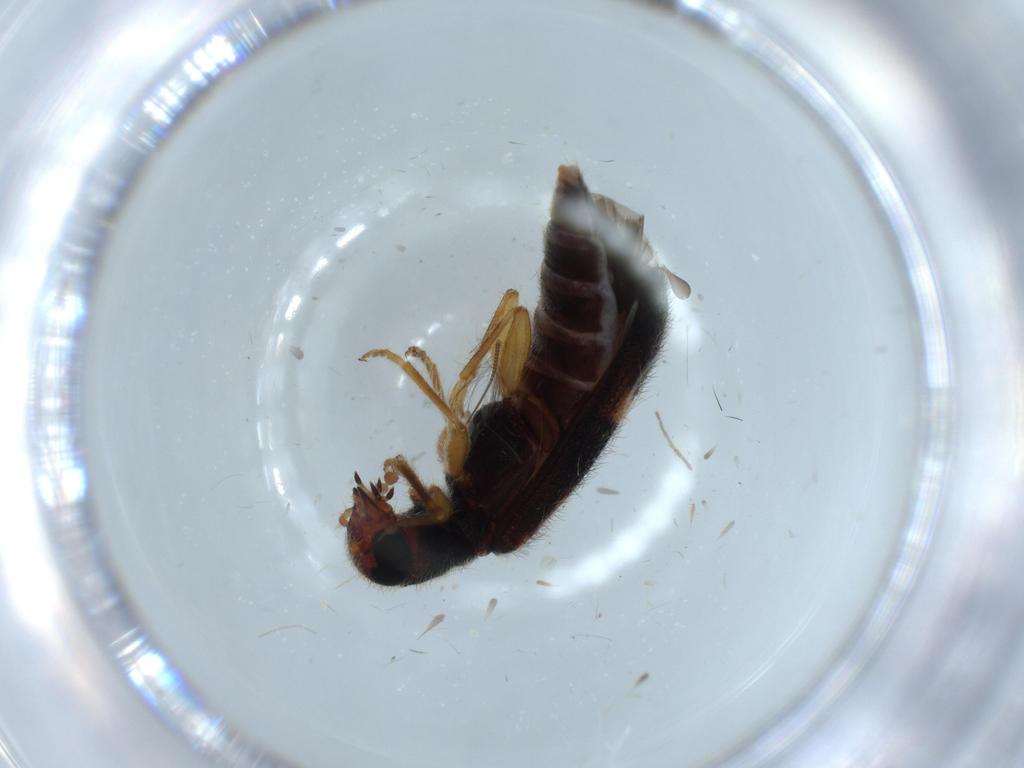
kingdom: Animalia
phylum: Arthropoda
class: Insecta
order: Coleoptera
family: Cleridae
